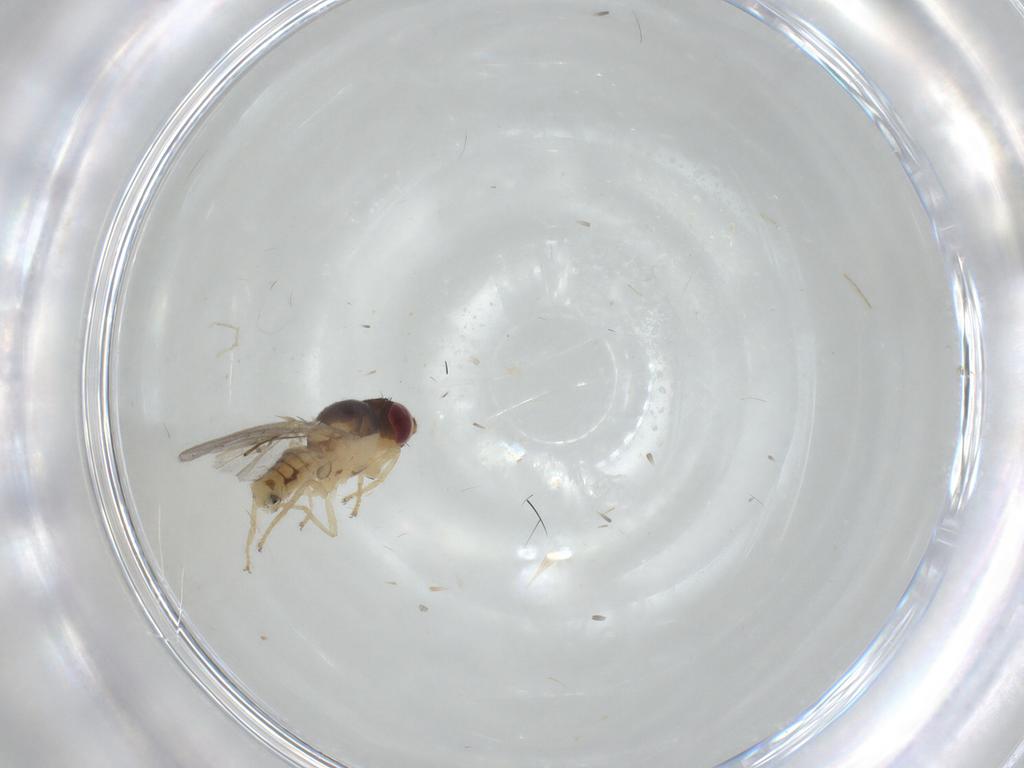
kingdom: Animalia
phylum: Arthropoda
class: Insecta
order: Diptera
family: Asteiidae
